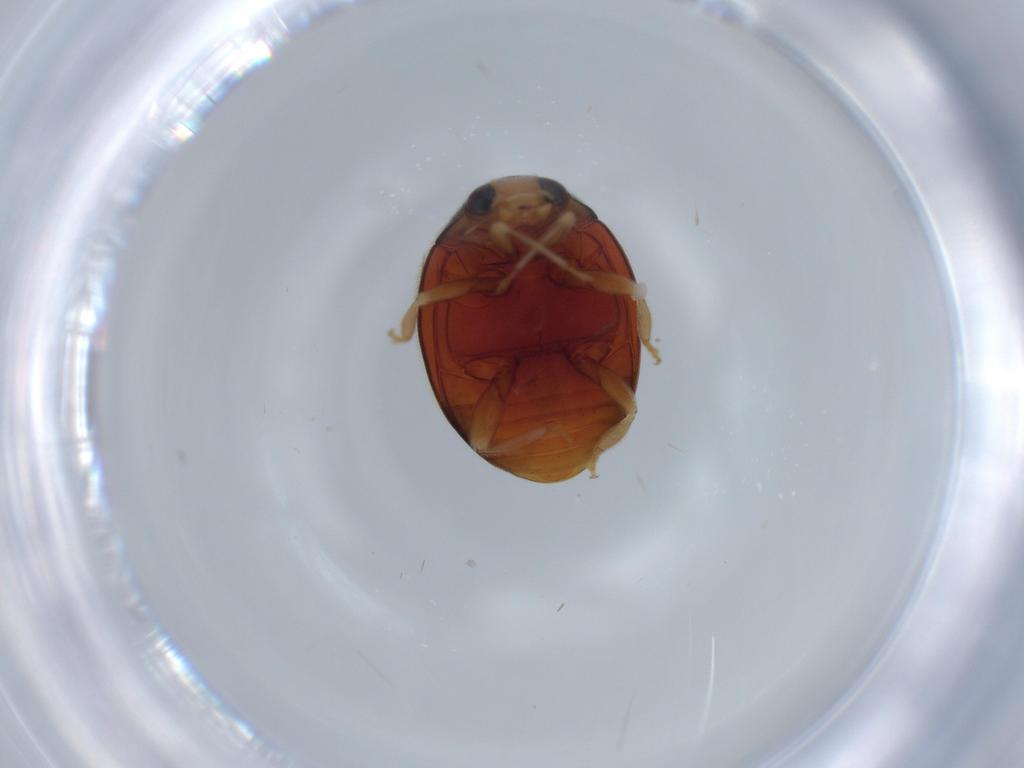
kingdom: Animalia
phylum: Arthropoda
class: Insecta
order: Coleoptera
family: Coccinellidae
